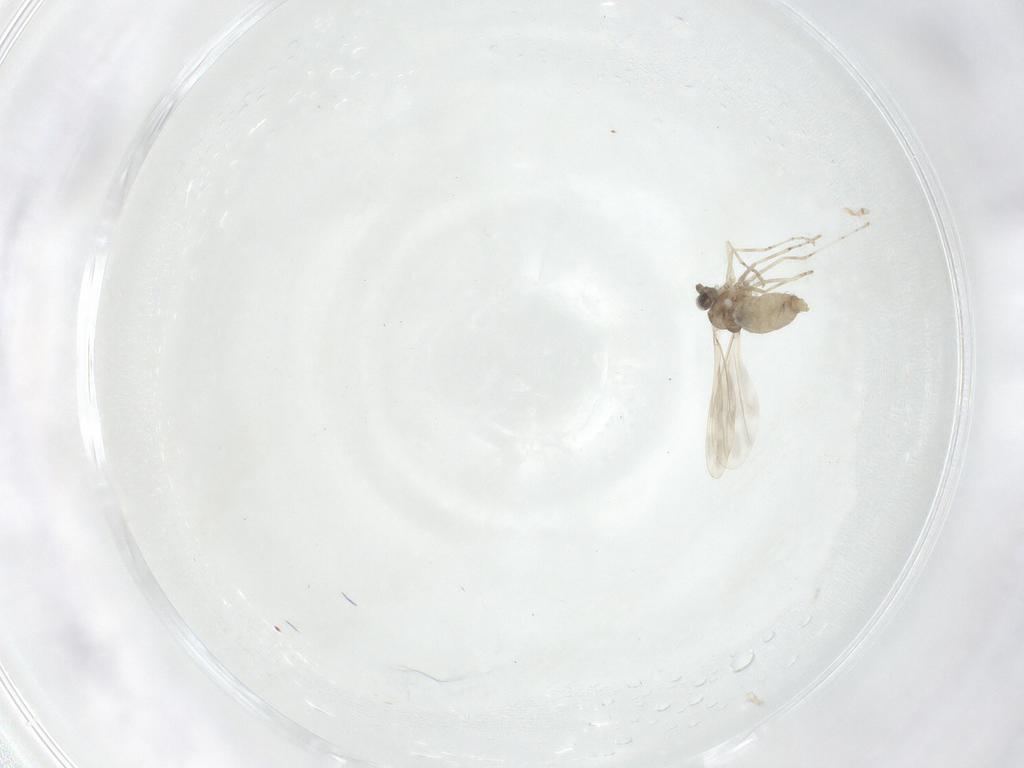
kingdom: Animalia
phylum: Arthropoda
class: Insecta
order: Diptera
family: Cecidomyiidae
